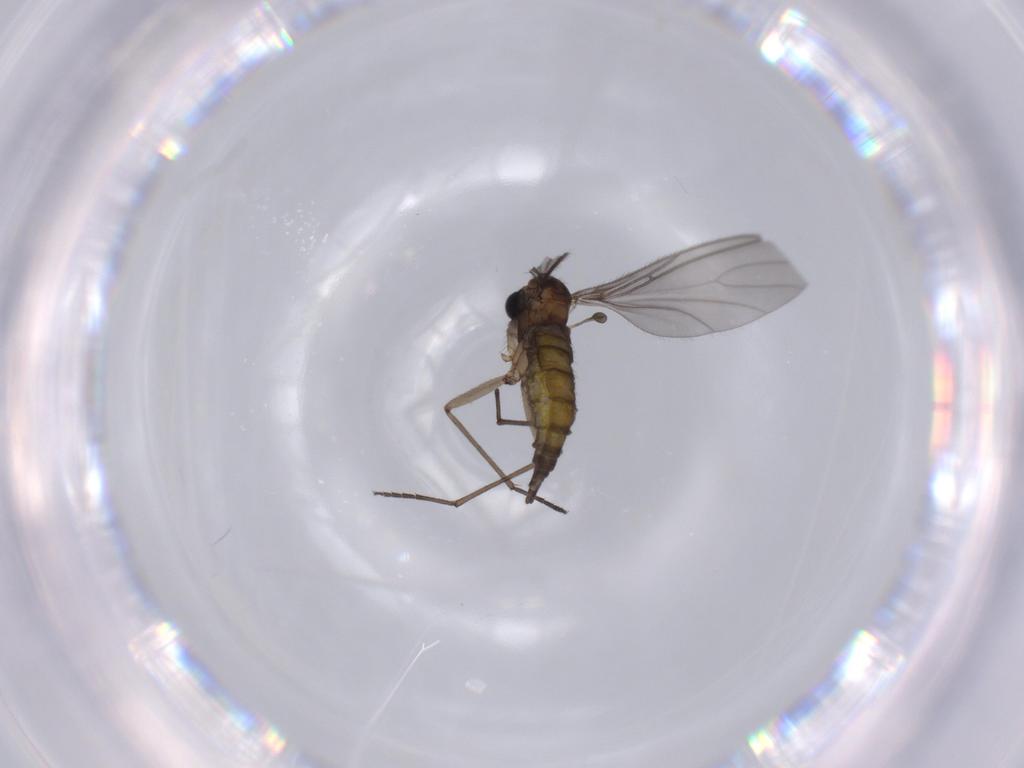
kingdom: Animalia
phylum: Arthropoda
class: Insecta
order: Diptera
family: Sciaridae
